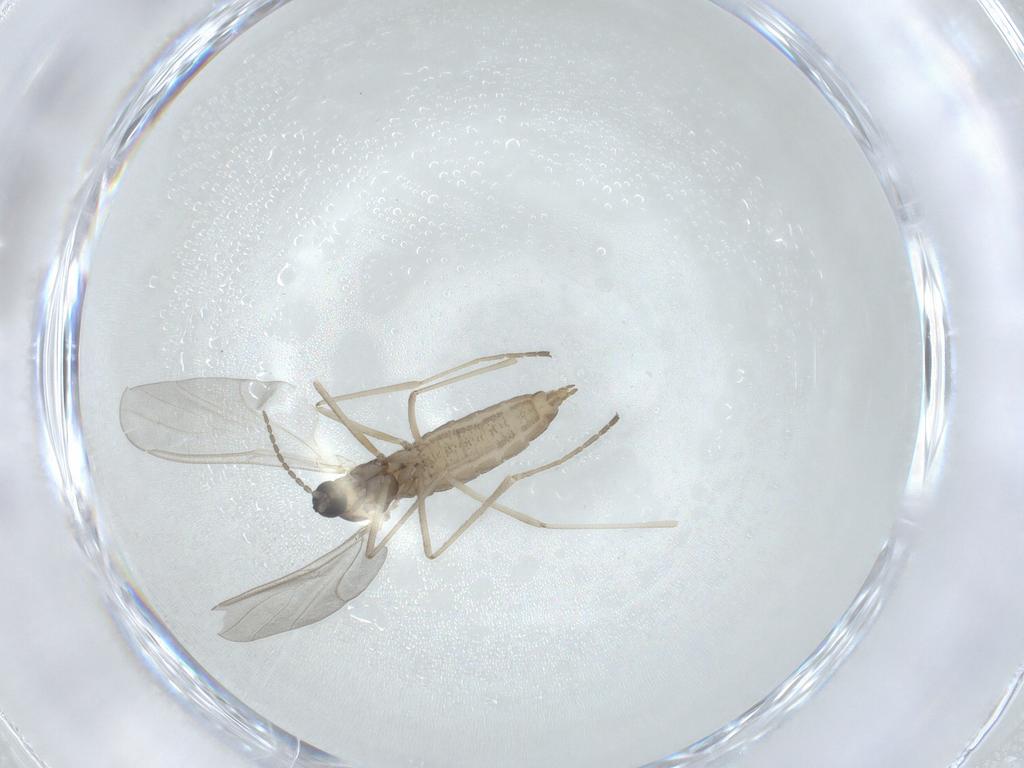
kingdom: Animalia
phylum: Arthropoda
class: Insecta
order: Diptera
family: Cecidomyiidae
